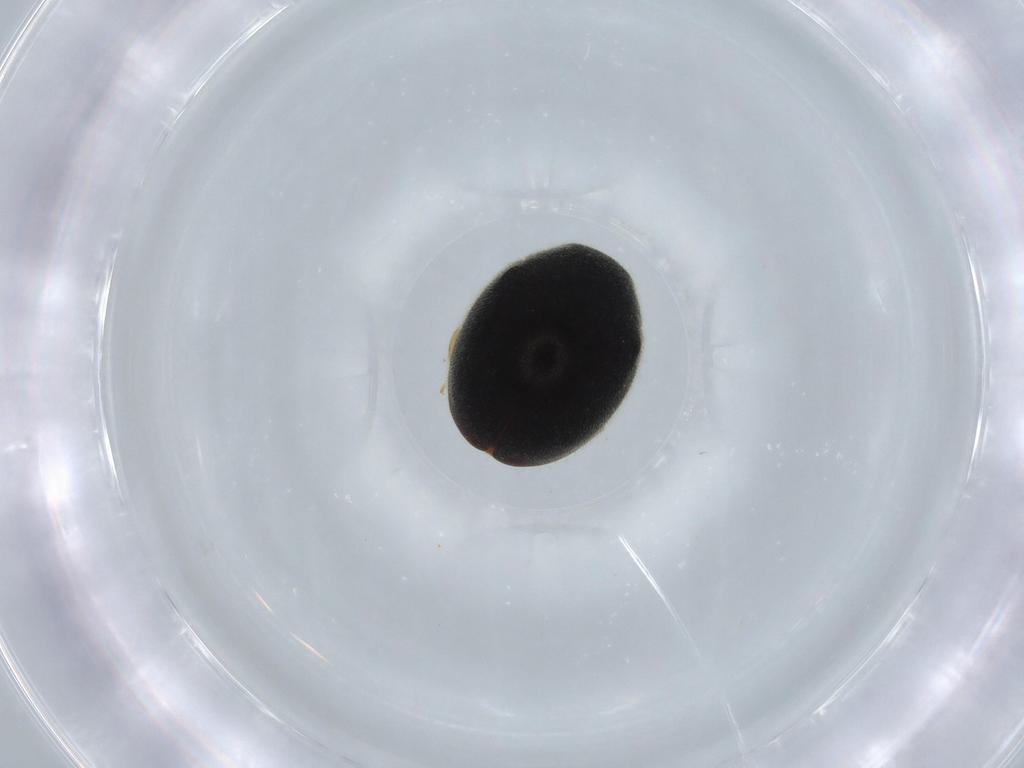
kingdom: Animalia
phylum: Arthropoda
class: Insecta
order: Coleoptera
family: Coccinellidae
